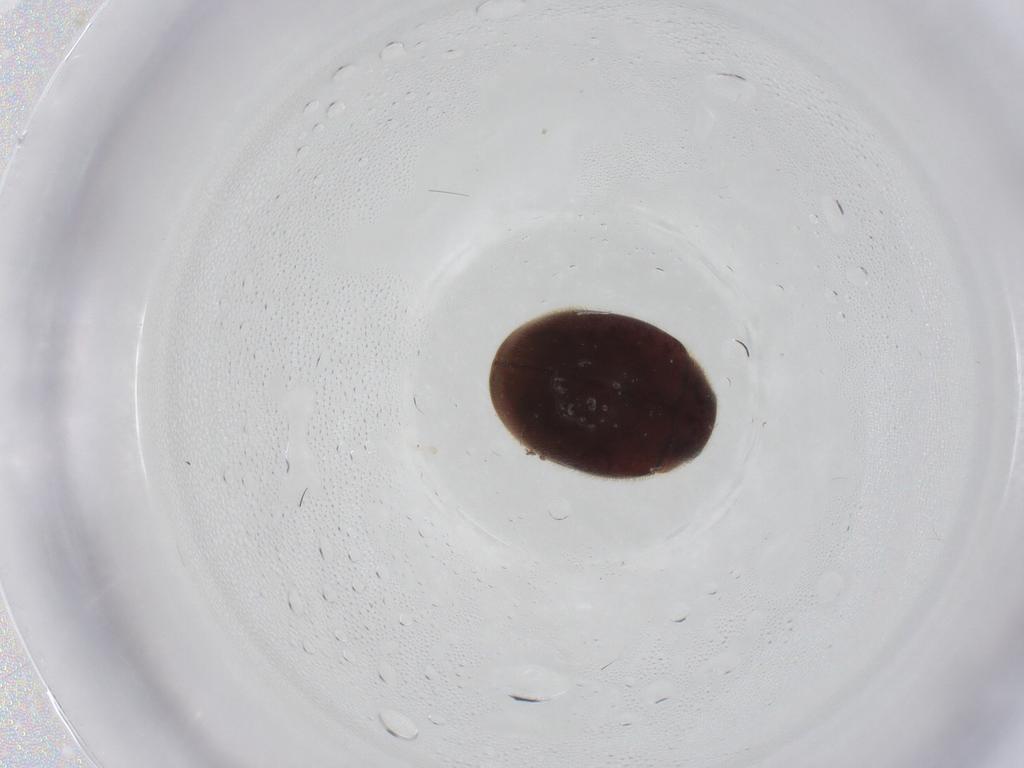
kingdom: Animalia
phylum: Arthropoda
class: Insecta
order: Coleoptera
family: Coccinellidae
